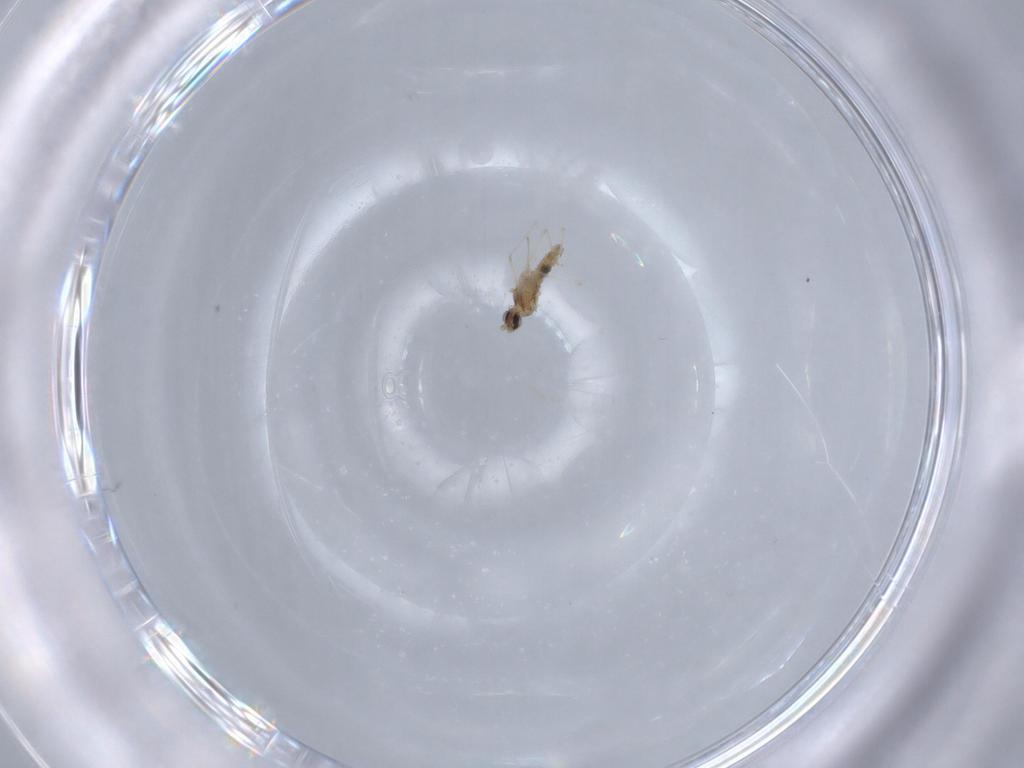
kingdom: Animalia
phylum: Arthropoda
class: Insecta
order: Diptera
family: Cecidomyiidae
